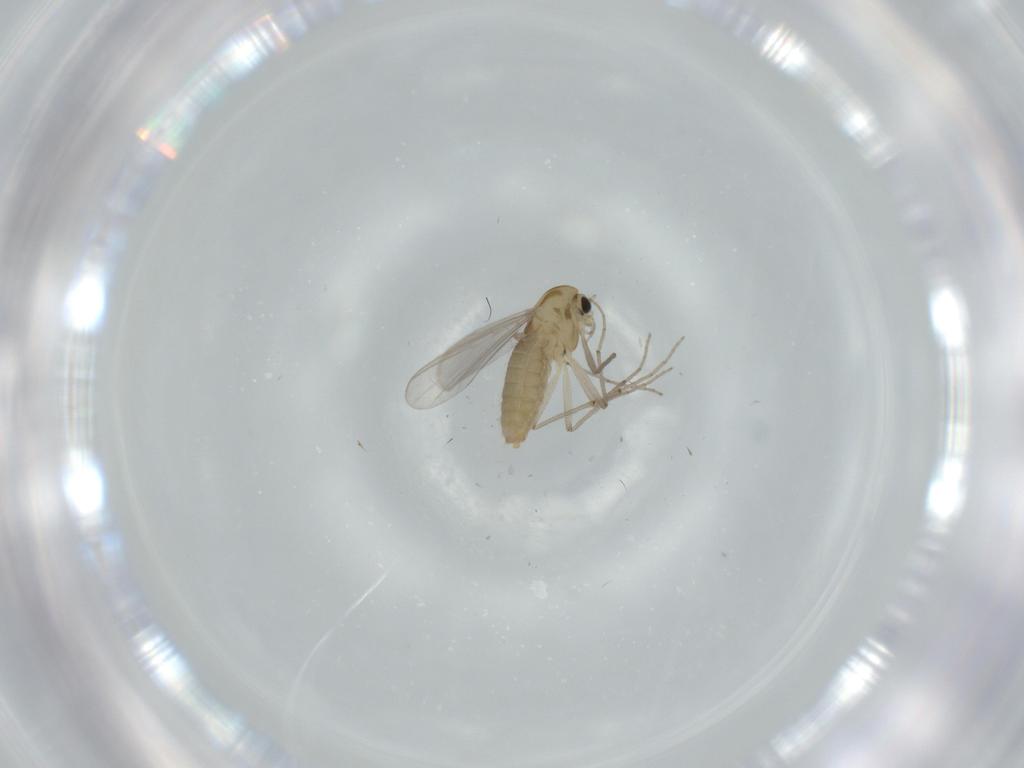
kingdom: Animalia
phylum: Arthropoda
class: Insecta
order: Diptera
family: Chironomidae
